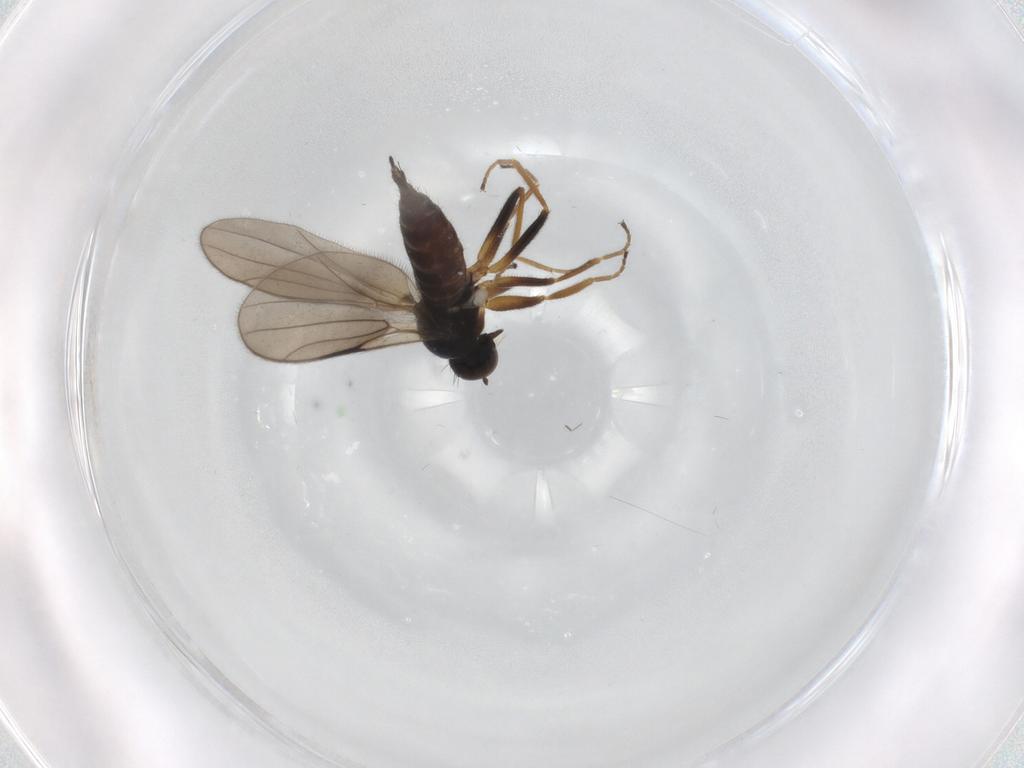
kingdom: Animalia
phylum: Arthropoda
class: Insecta
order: Diptera
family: Hybotidae
